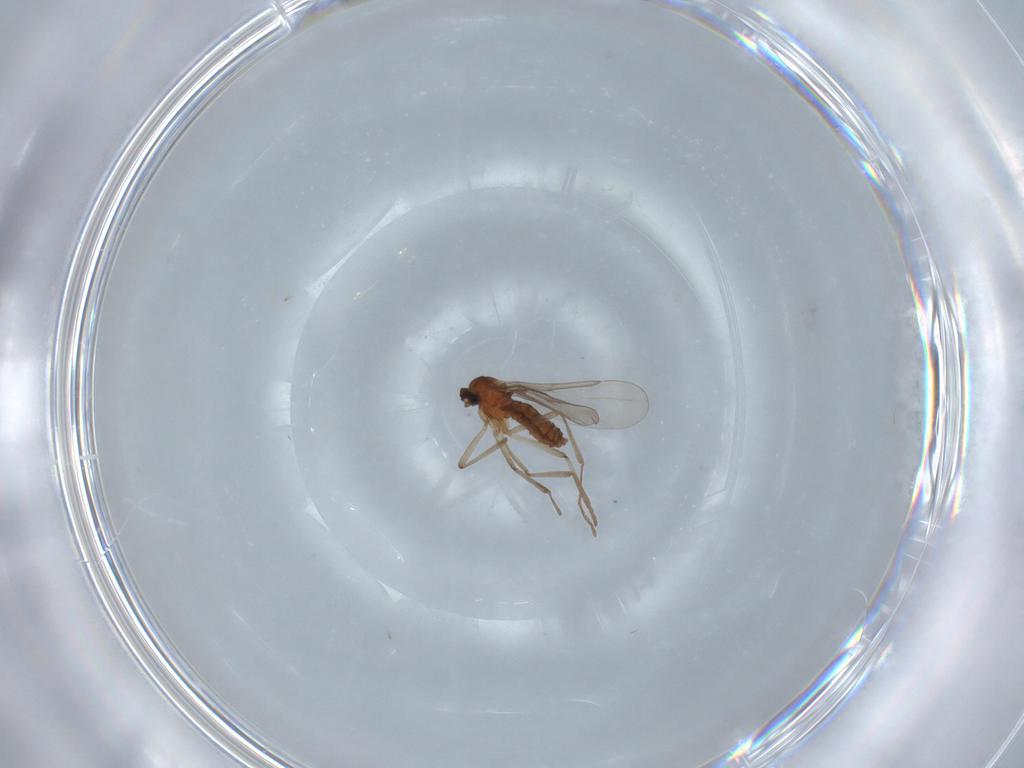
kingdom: Animalia
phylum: Arthropoda
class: Insecta
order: Diptera
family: Cecidomyiidae
